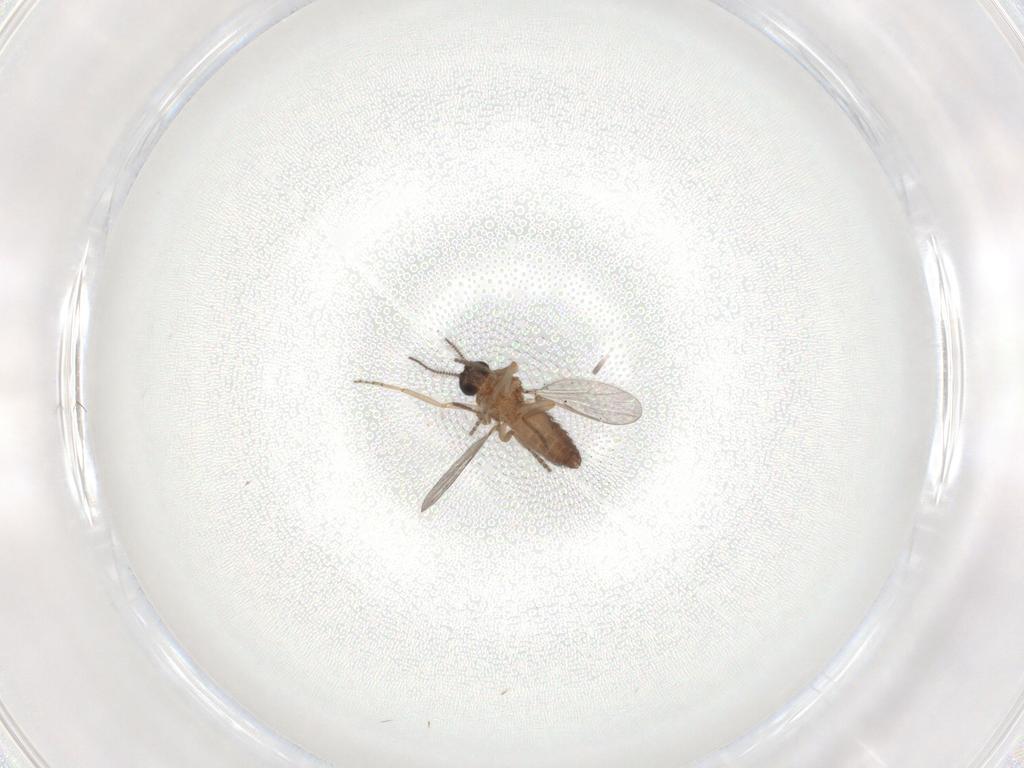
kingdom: Animalia
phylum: Arthropoda
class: Insecta
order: Diptera
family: Ceratopogonidae
